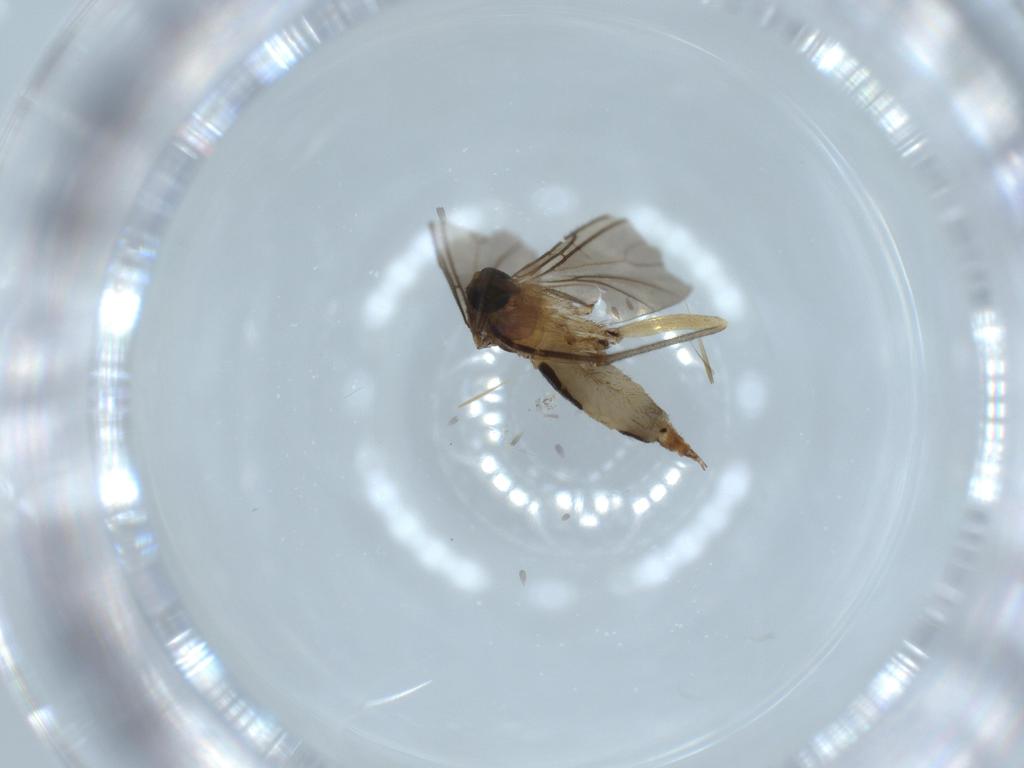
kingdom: Animalia
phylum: Arthropoda
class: Insecta
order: Diptera
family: Sciaridae
